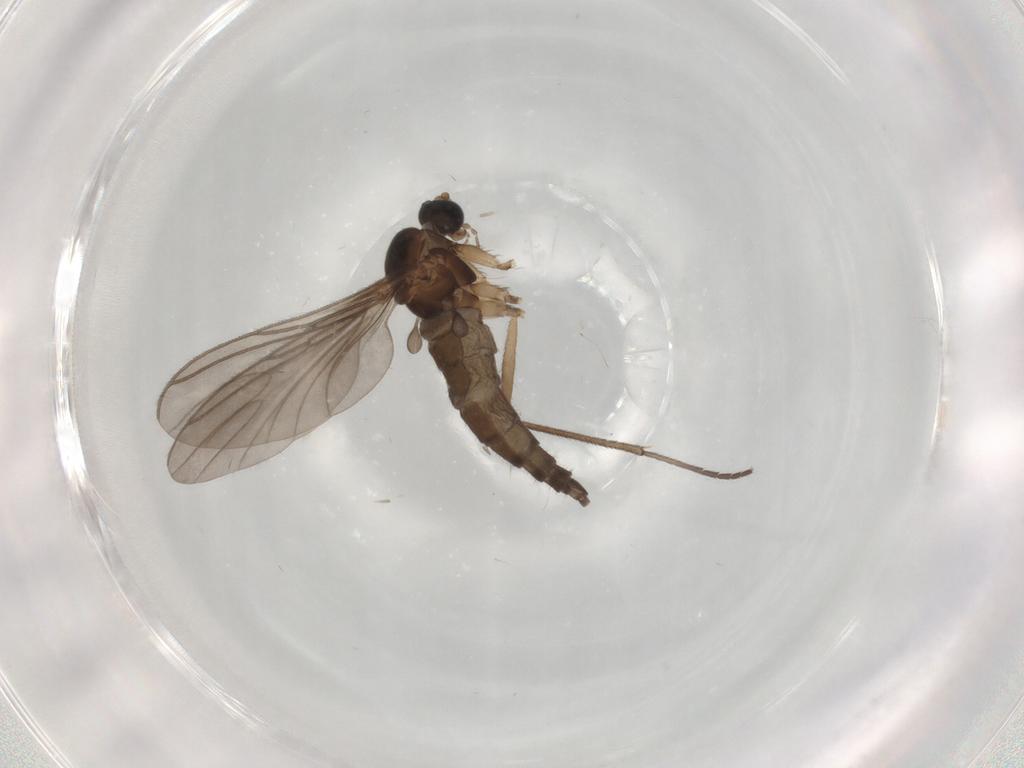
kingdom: Animalia
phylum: Arthropoda
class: Insecta
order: Diptera
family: Sciaridae
